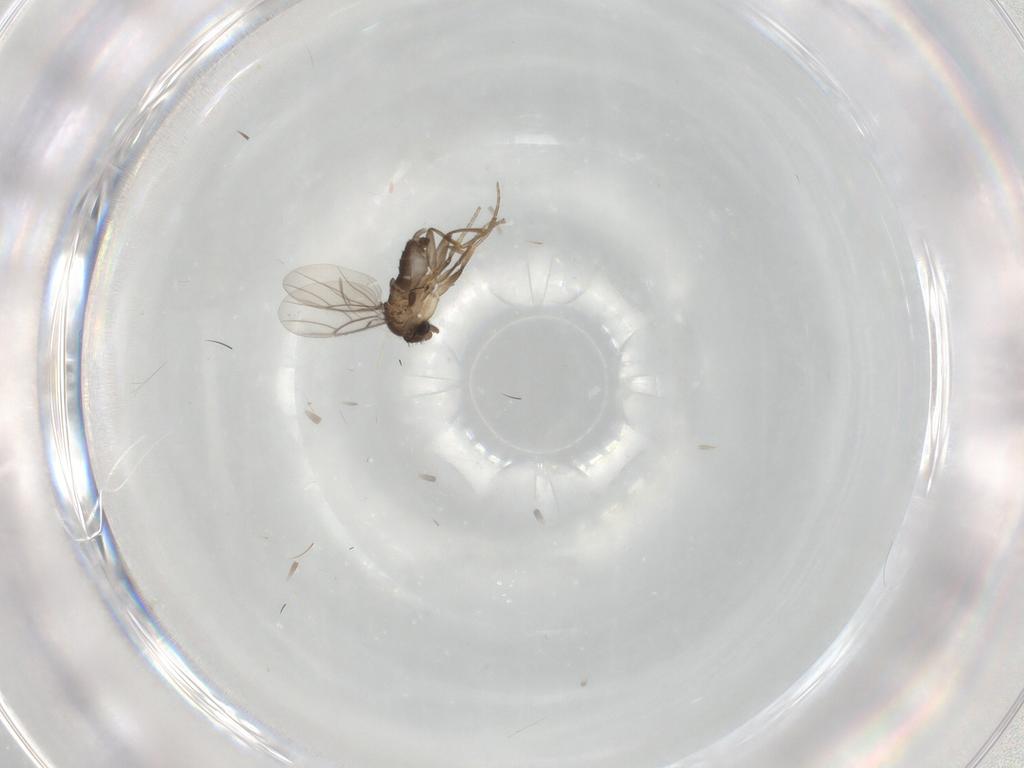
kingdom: Animalia
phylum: Arthropoda
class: Insecta
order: Diptera
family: Phoridae
